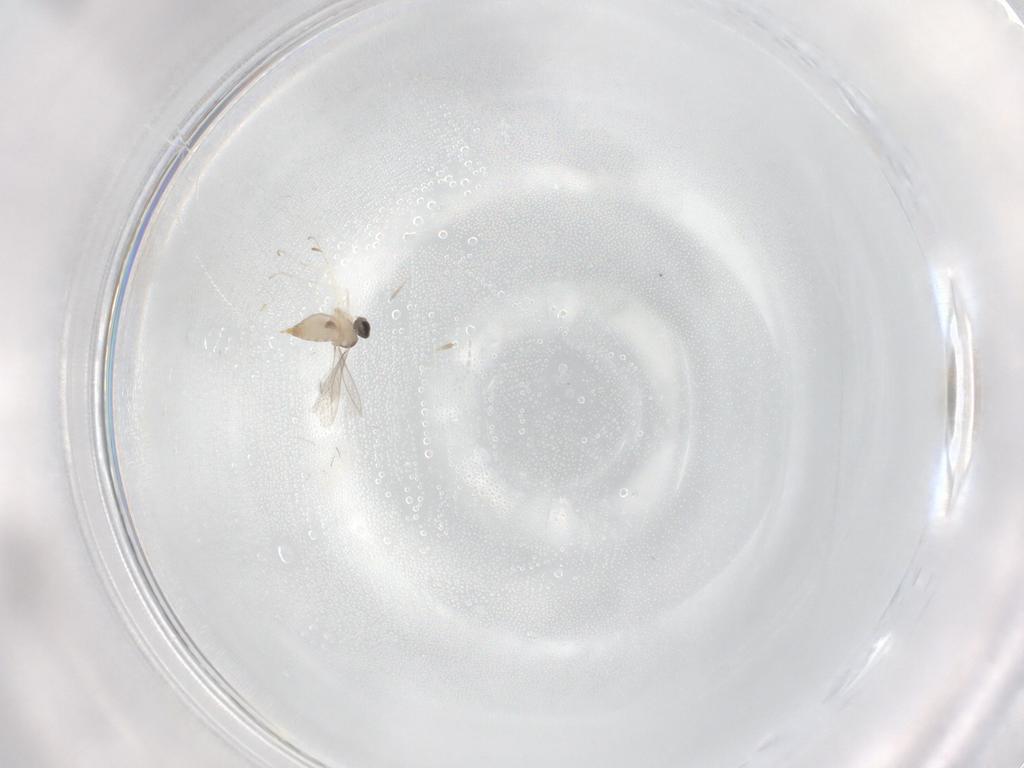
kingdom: Animalia
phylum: Arthropoda
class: Insecta
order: Diptera
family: Cecidomyiidae
